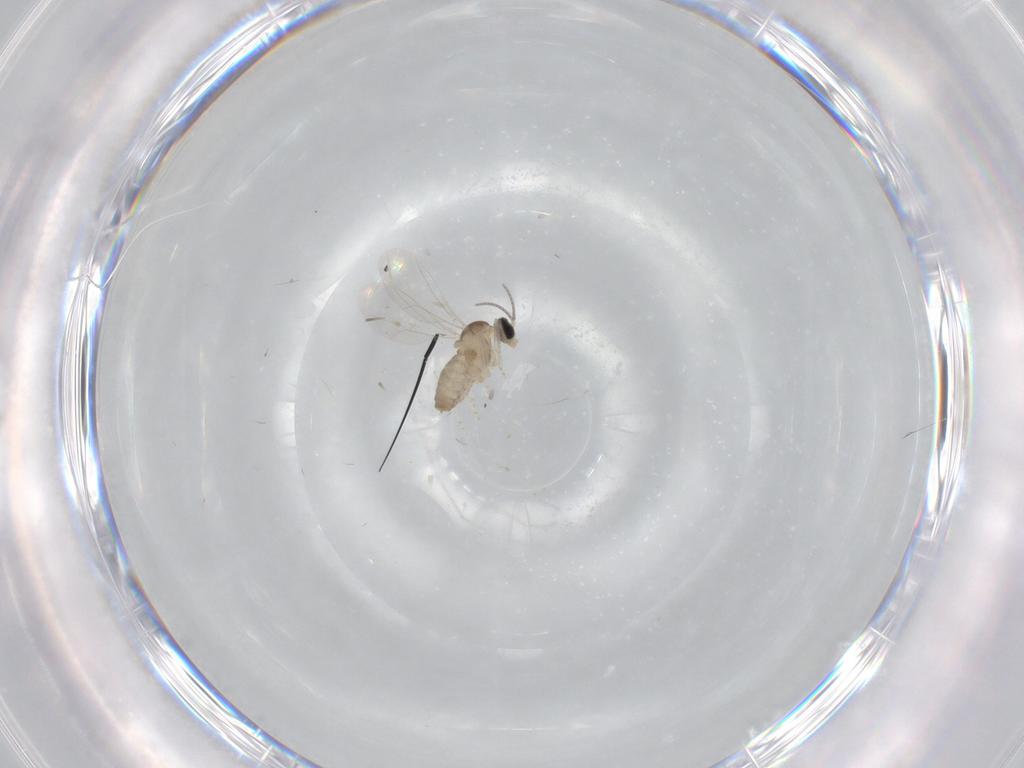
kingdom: Animalia
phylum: Arthropoda
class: Insecta
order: Diptera
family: Cecidomyiidae
